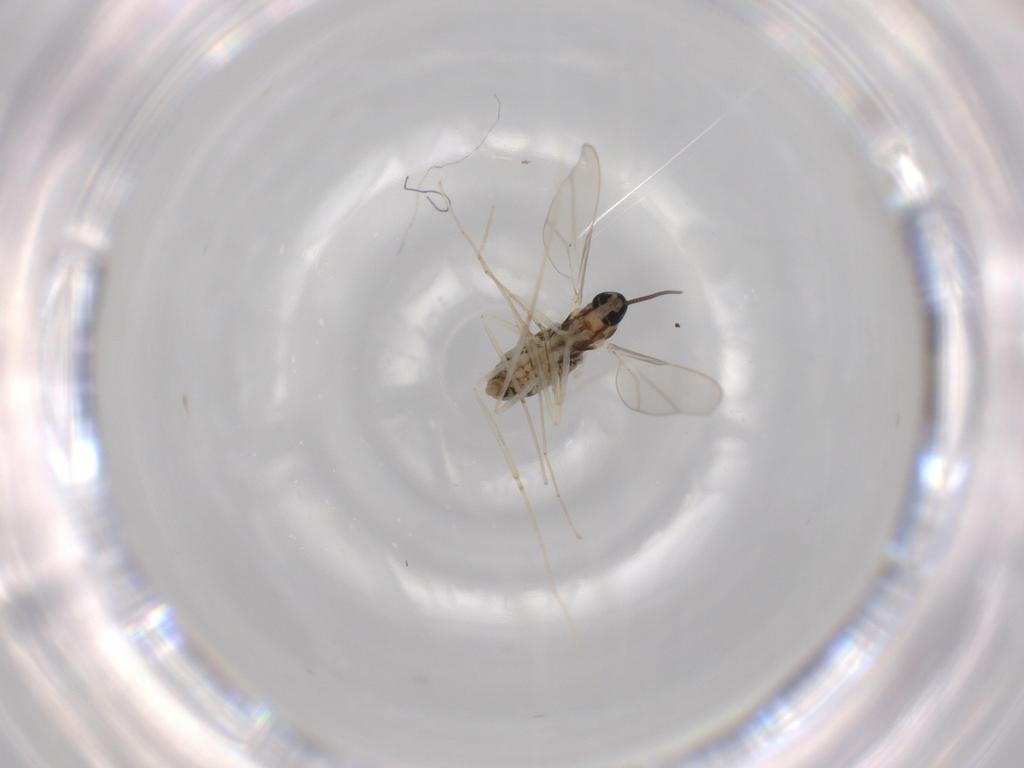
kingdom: Animalia
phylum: Arthropoda
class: Insecta
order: Diptera
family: Cecidomyiidae
